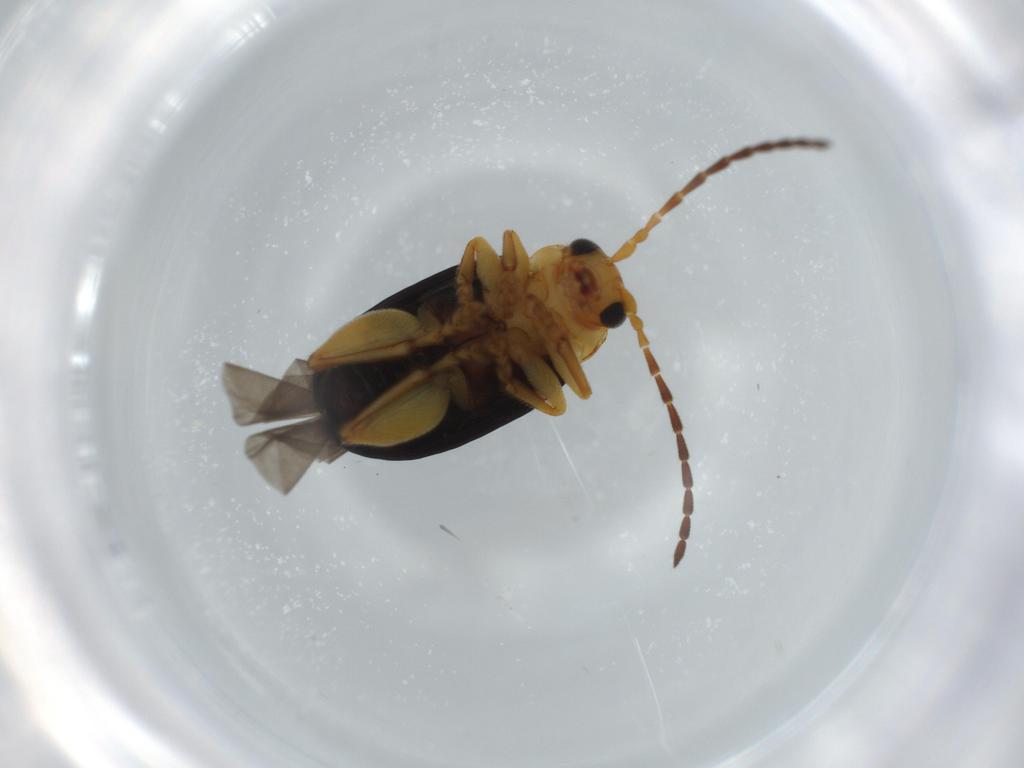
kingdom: Animalia
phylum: Arthropoda
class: Insecta
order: Coleoptera
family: Chrysomelidae
